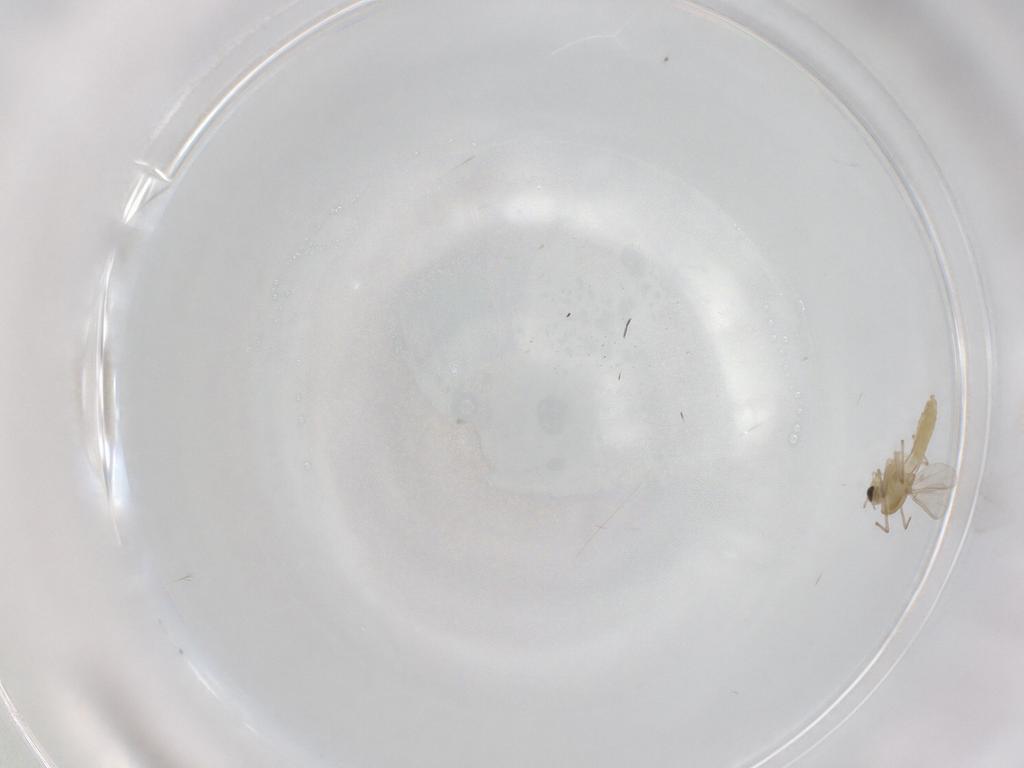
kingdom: Animalia
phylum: Arthropoda
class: Insecta
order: Diptera
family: Chironomidae
